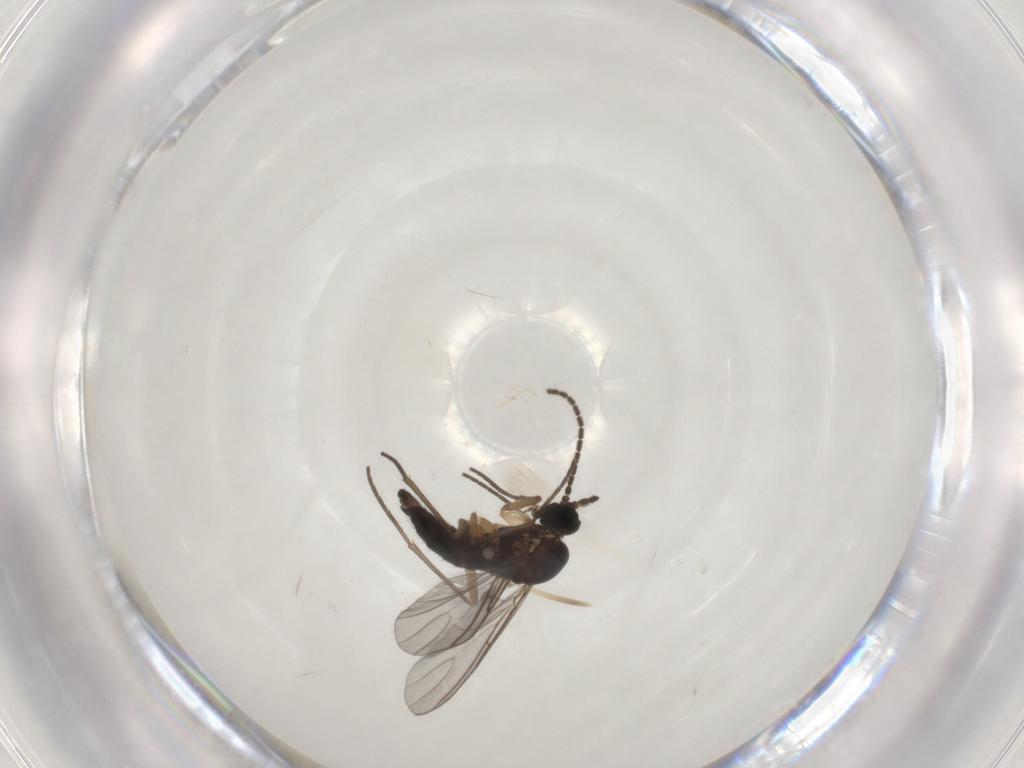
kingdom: Animalia
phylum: Arthropoda
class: Insecta
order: Diptera
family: Sciaridae
